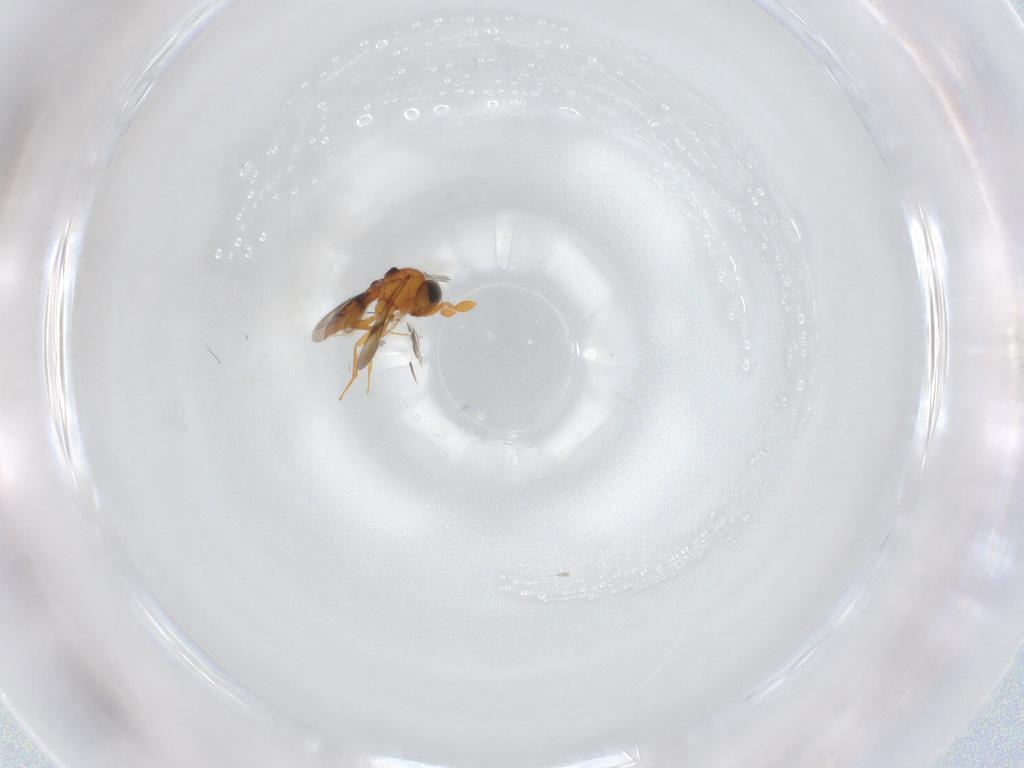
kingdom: Animalia
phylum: Arthropoda
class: Insecta
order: Hymenoptera
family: Scelionidae
